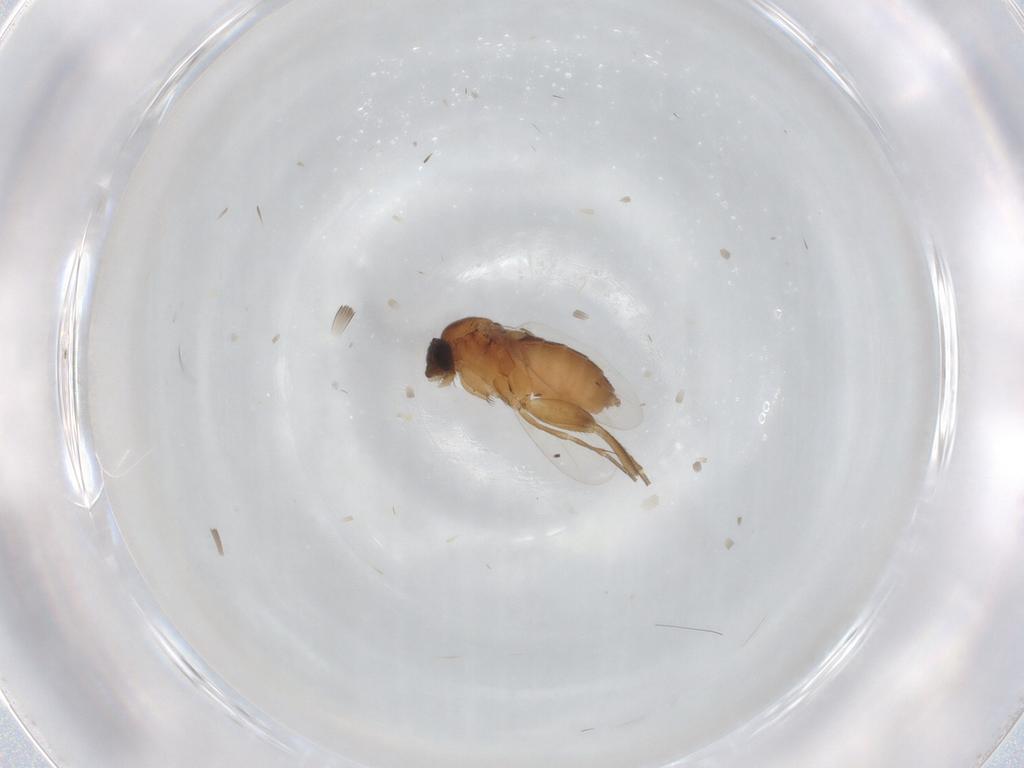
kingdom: Animalia
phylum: Arthropoda
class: Insecta
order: Diptera
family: Phoridae
